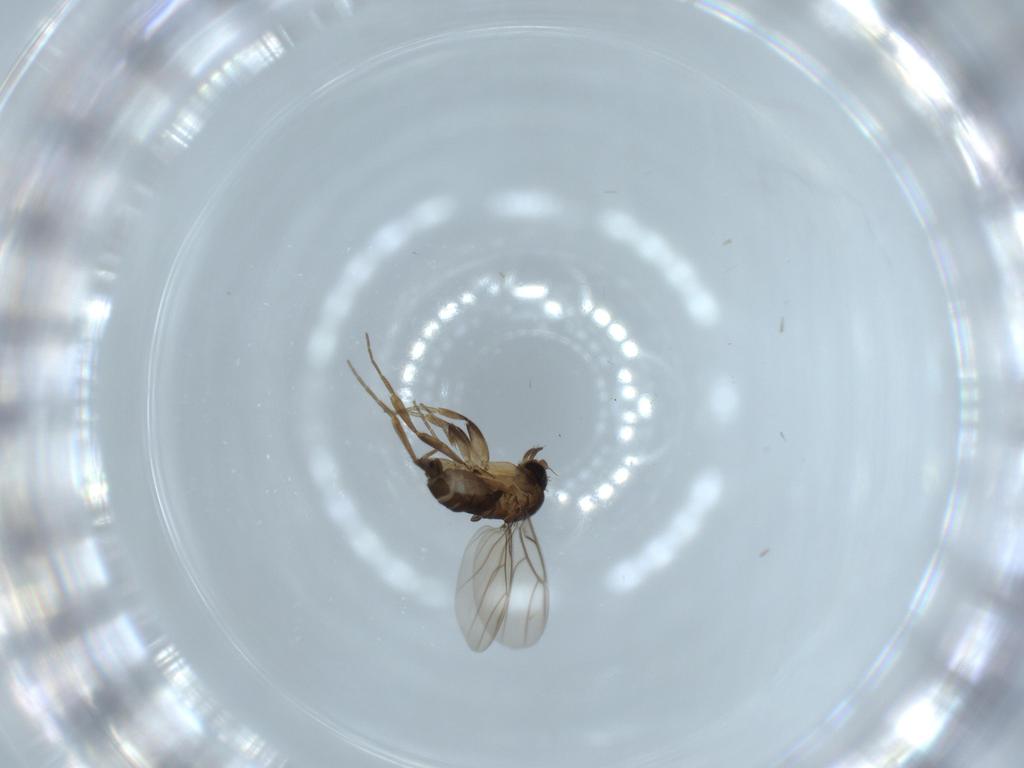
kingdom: Animalia
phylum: Arthropoda
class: Insecta
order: Diptera
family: Phoridae
